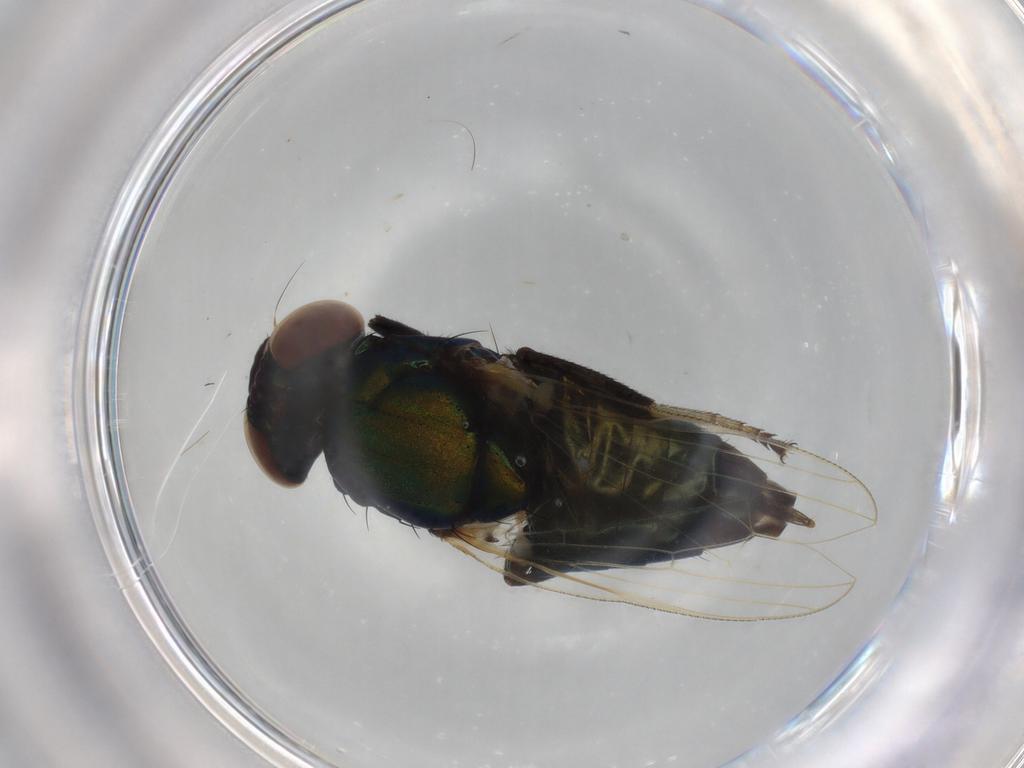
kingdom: Animalia
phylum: Arthropoda
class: Insecta
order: Diptera
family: Ulidiidae
